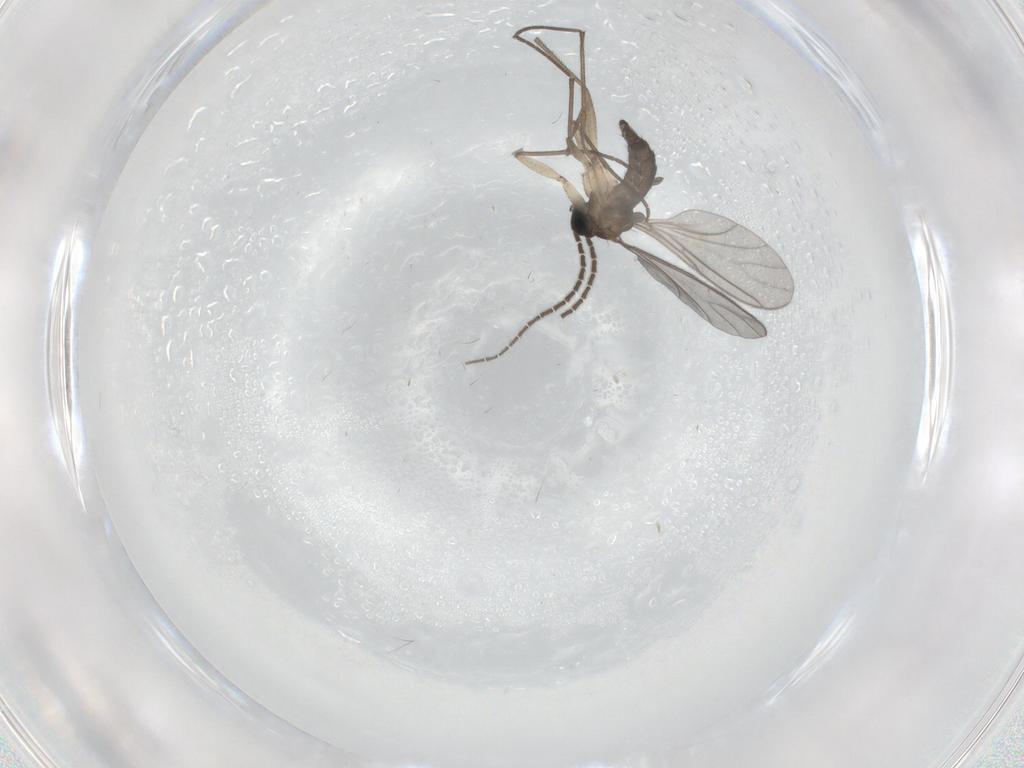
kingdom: Animalia
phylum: Arthropoda
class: Insecta
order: Diptera
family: Sciaridae
